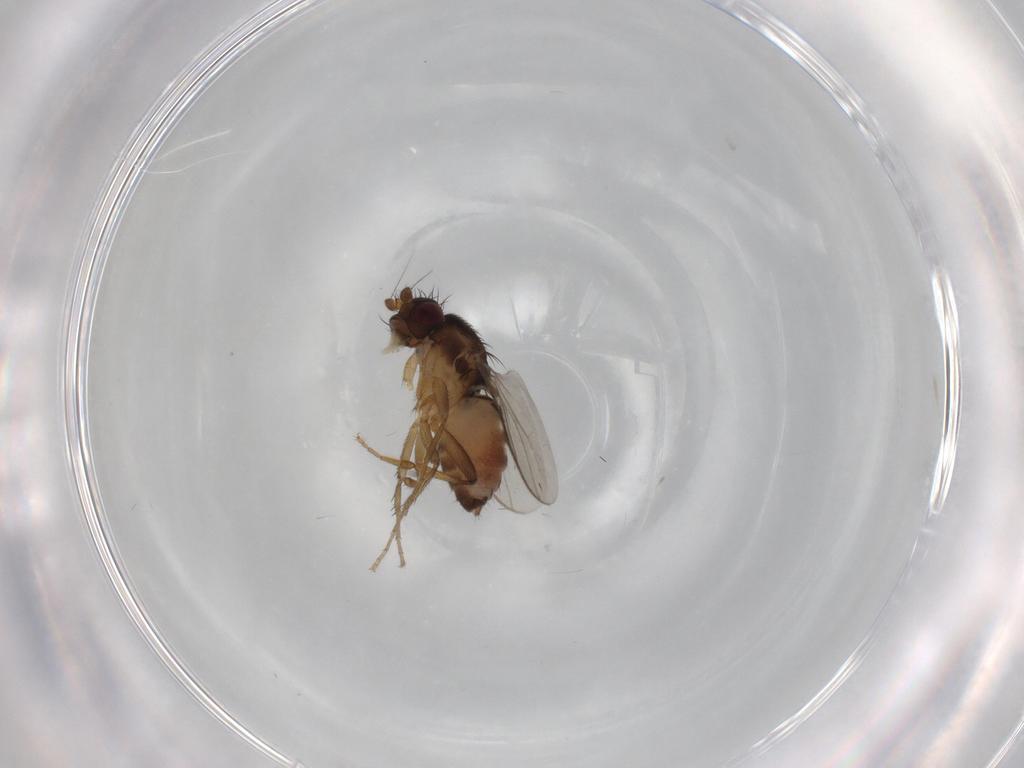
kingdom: Animalia
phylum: Arthropoda
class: Insecta
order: Diptera
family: Sphaeroceridae
